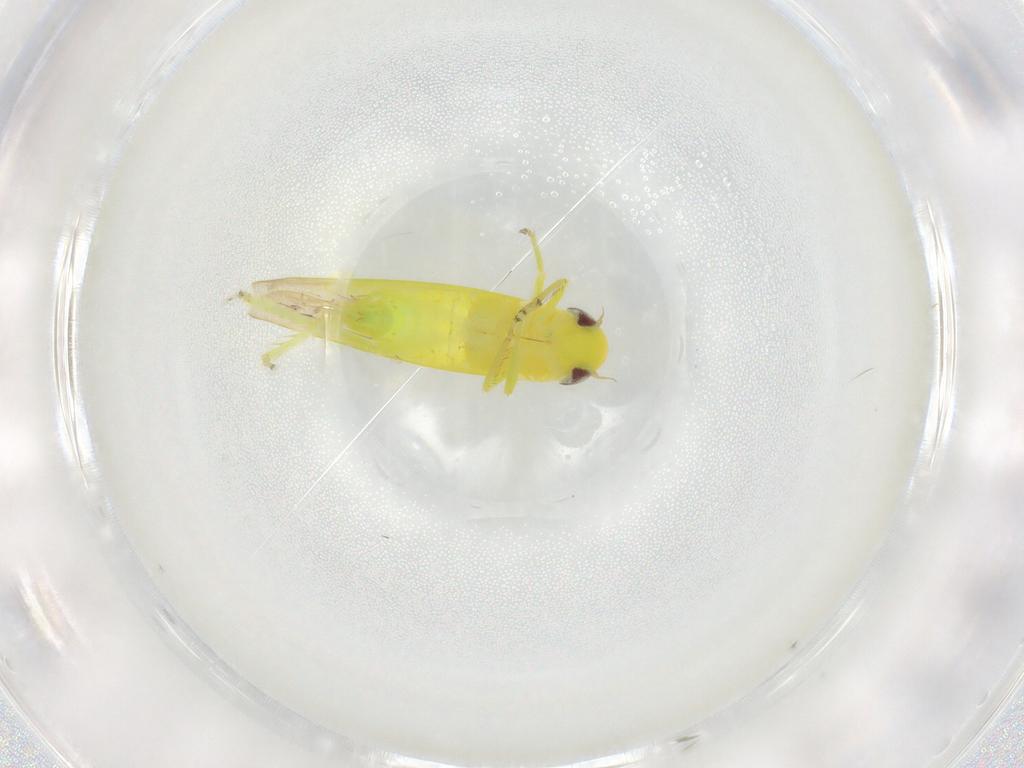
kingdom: Animalia
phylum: Arthropoda
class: Insecta
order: Hemiptera
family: Cicadellidae
